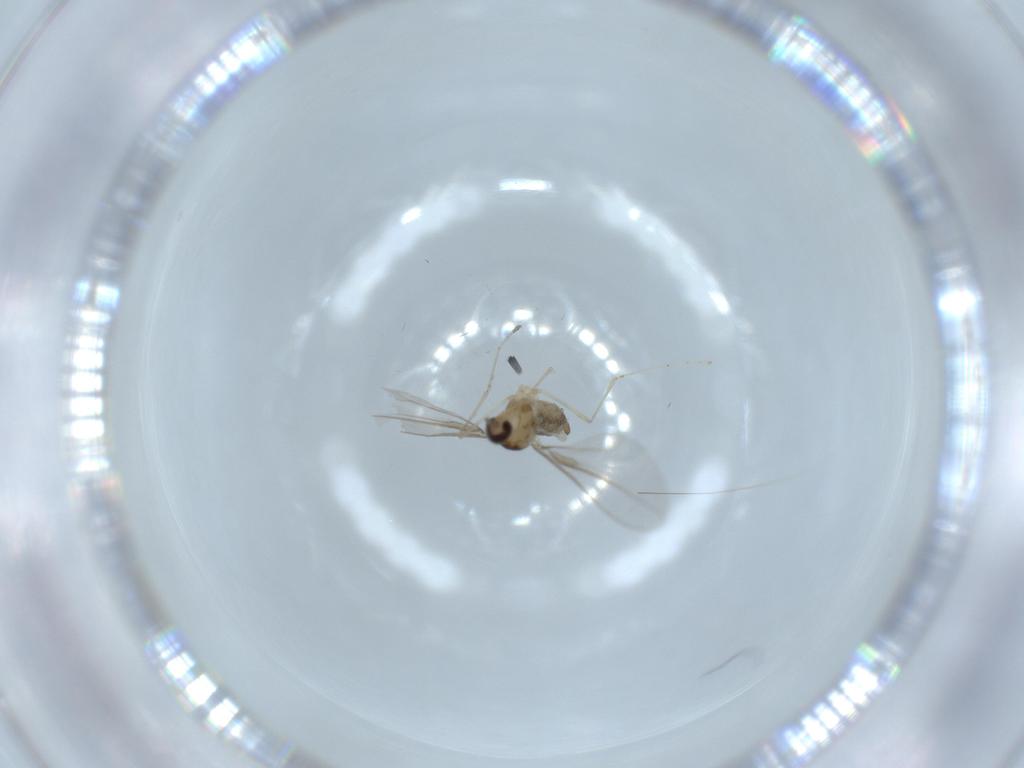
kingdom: Animalia
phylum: Arthropoda
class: Insecta
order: Diptera
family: Cecidomyiidae
